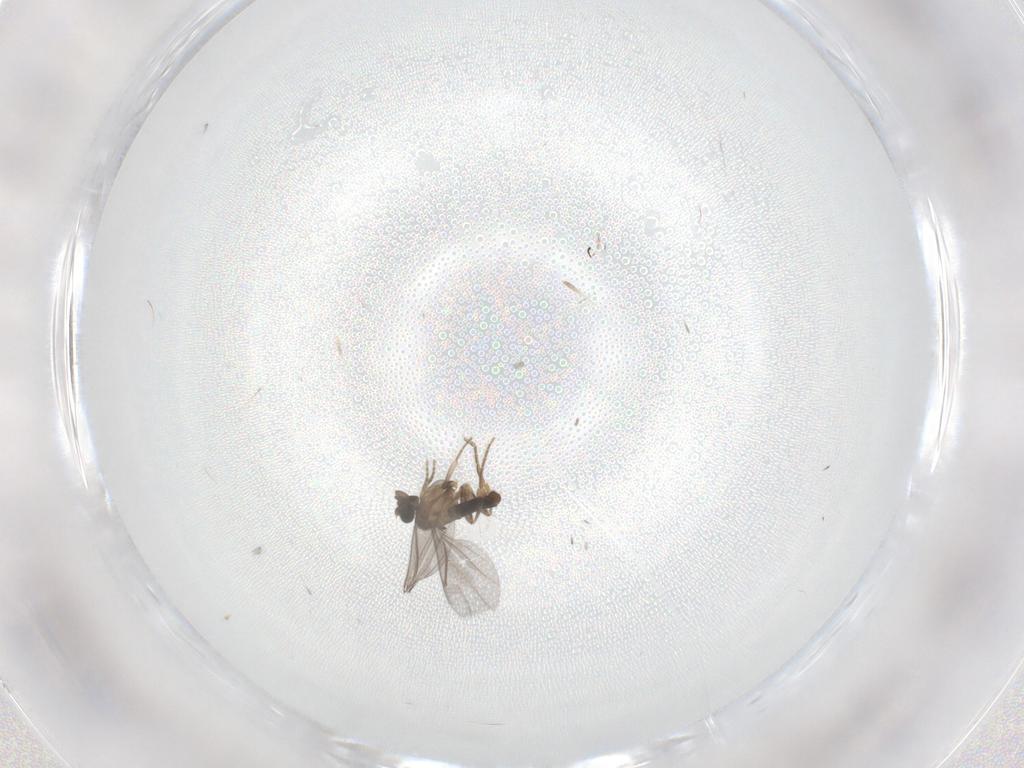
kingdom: Animalia
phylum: Arthropoda
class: Insecta
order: Diptera
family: Cecidomyiidae
